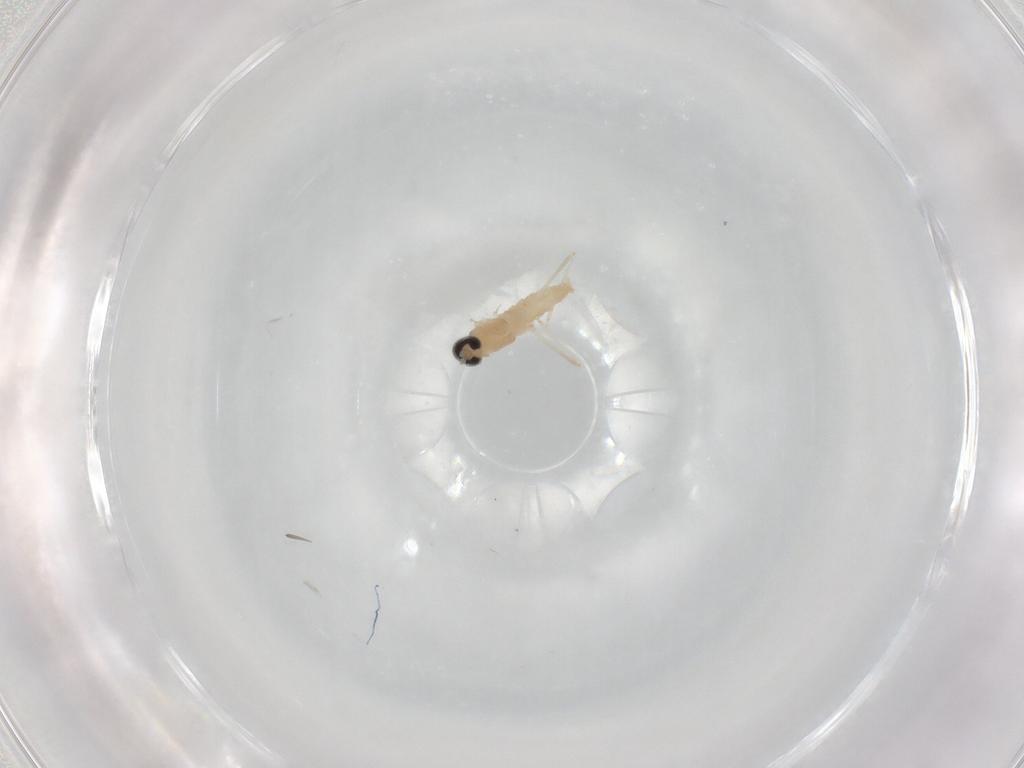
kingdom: Animalia
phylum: Arthropoda
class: Insecta
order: Diptera
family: Cecidomyiidae
